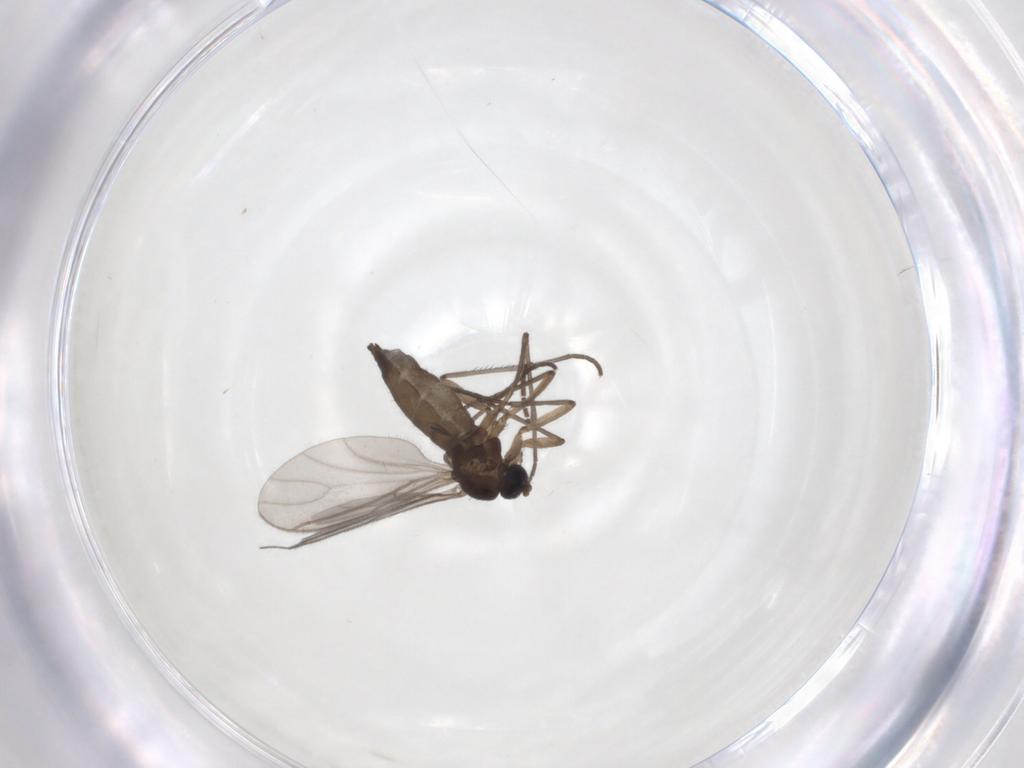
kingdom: Animalia
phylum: Arthropoda
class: Insecta
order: Diptera
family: Sciaridae
